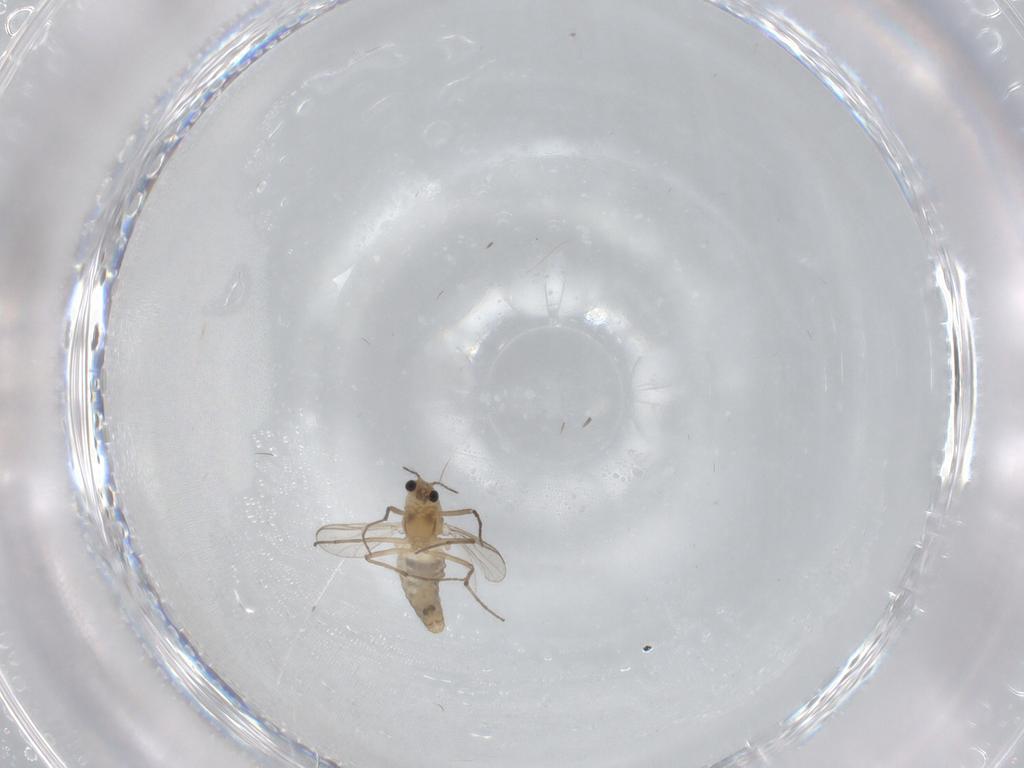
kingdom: Animalia
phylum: Arthropoda
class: Insecta
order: Diptera
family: Chironomidae
